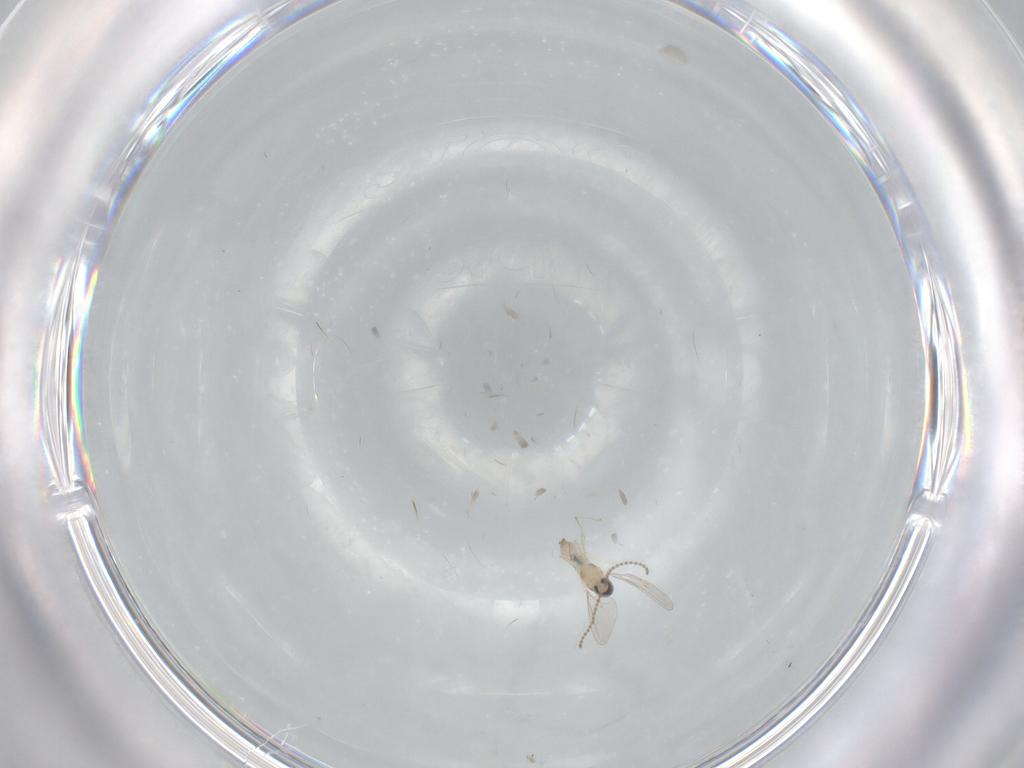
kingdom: Animalia
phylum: Arthropoda
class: Insecta
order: Diptera
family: Cecidomyiidae
